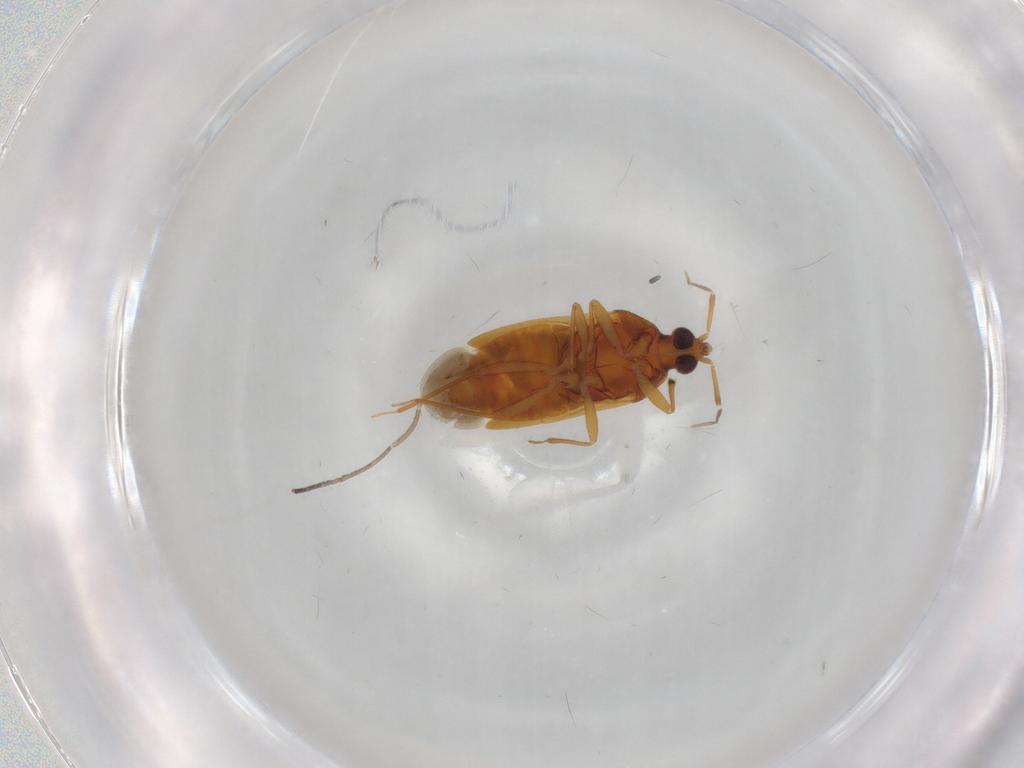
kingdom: Animalia
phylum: Arthropoda
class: Insecta
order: Hemiptera
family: Anthocoridae
